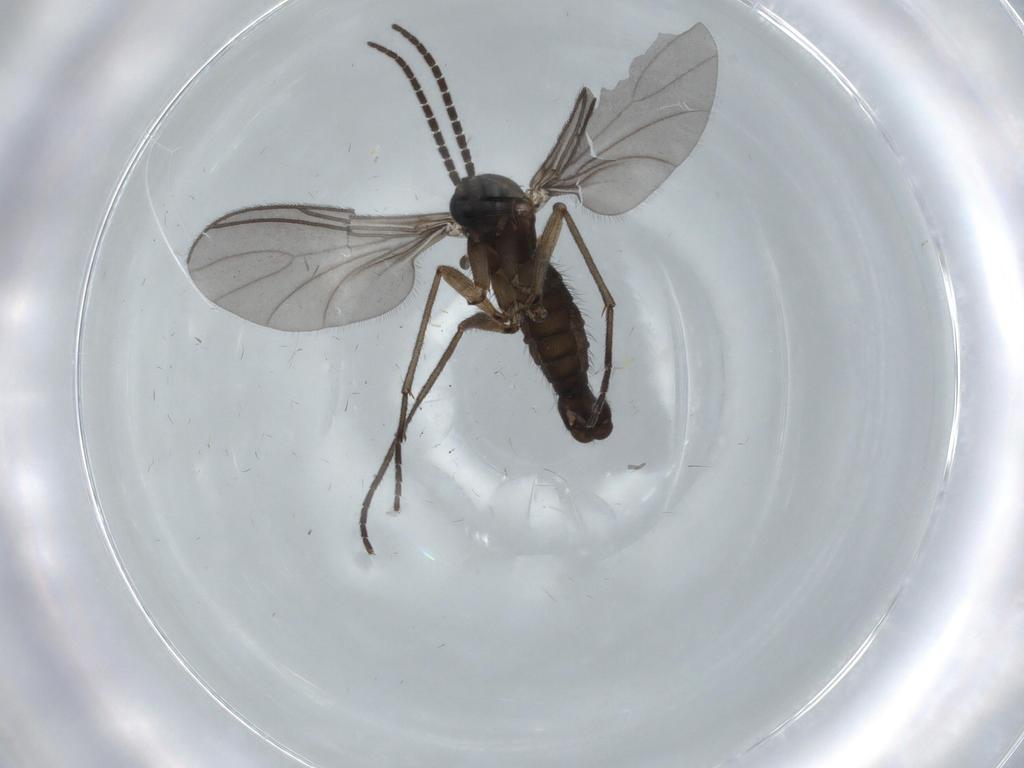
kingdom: Animalia
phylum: Arthropoda
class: Insecta
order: Diptera
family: Sciaridae
